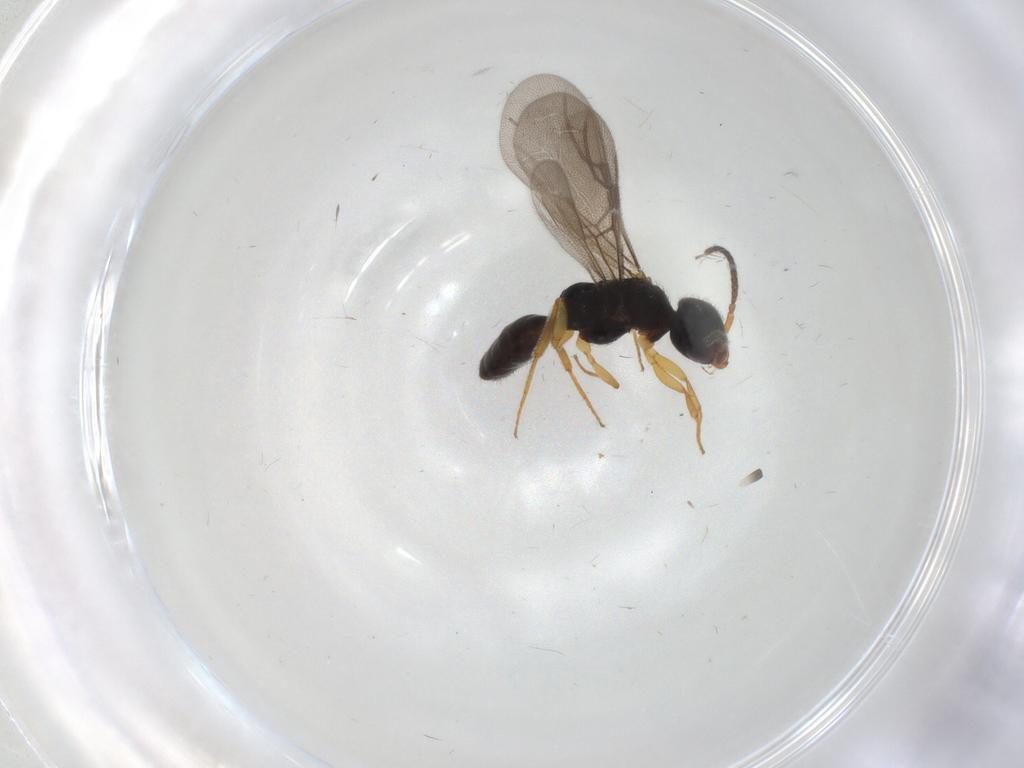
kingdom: Animalia
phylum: Arthropoda
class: Insecta
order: Hymenoptera
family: Bethylidae
